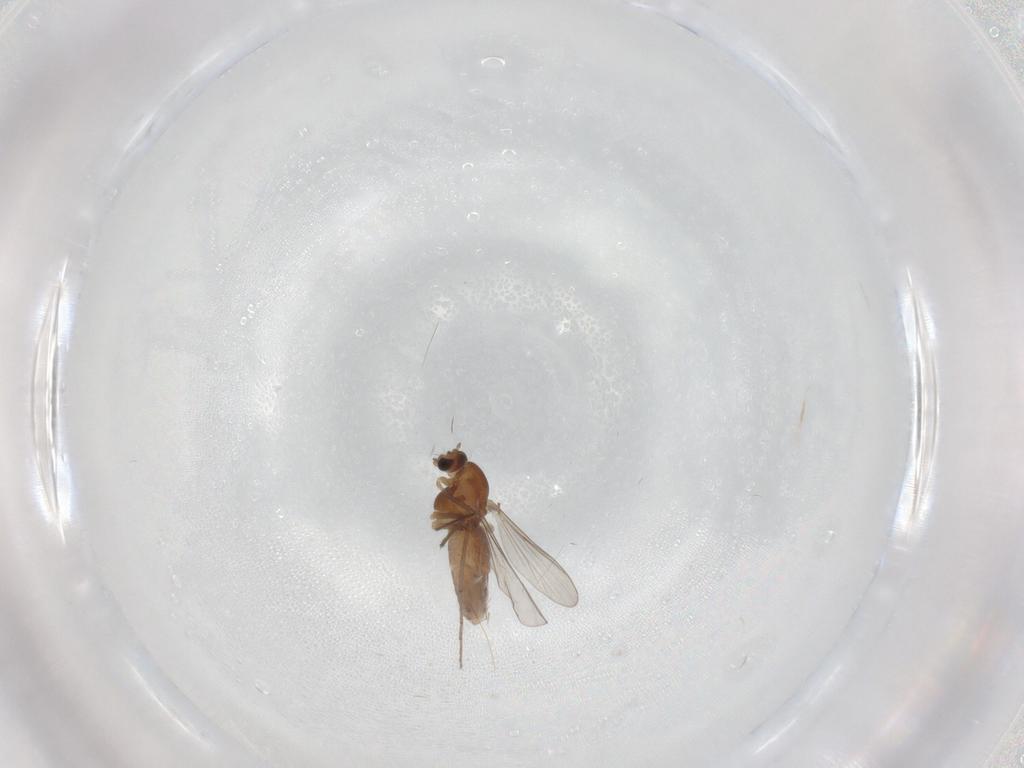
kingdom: Animalia
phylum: Arthropoda
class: Insecta
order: Diptera
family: Chironomidae
